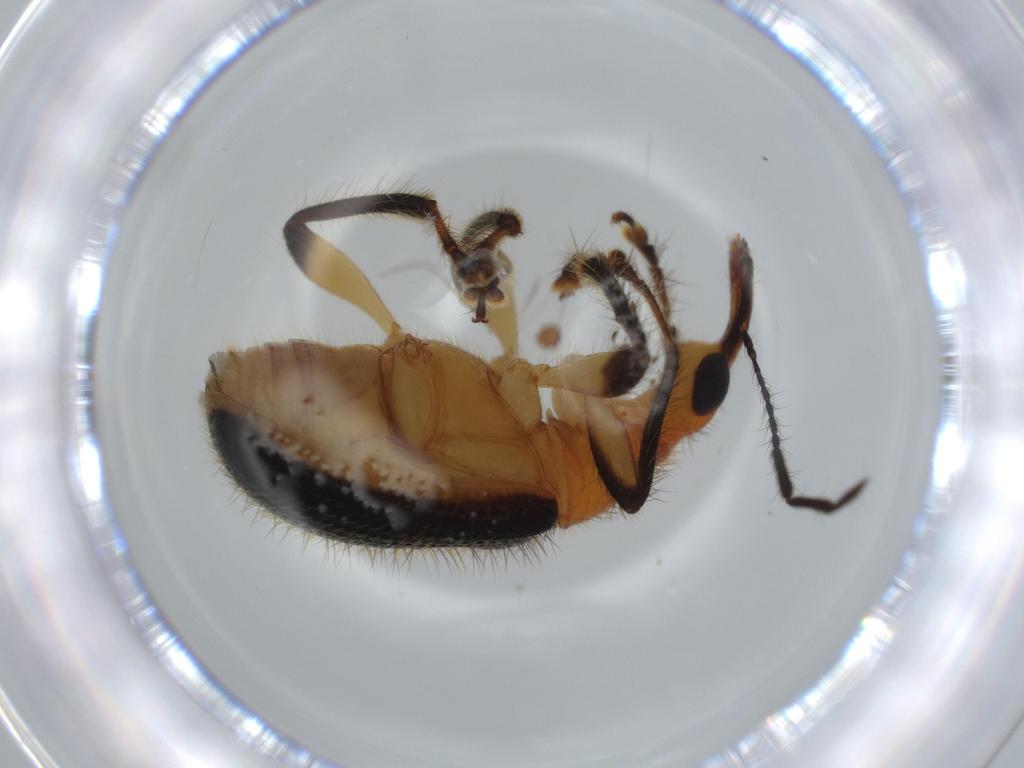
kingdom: Animalia
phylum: Arthropoda
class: Insecta
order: Coleoptera
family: Attelabidae
